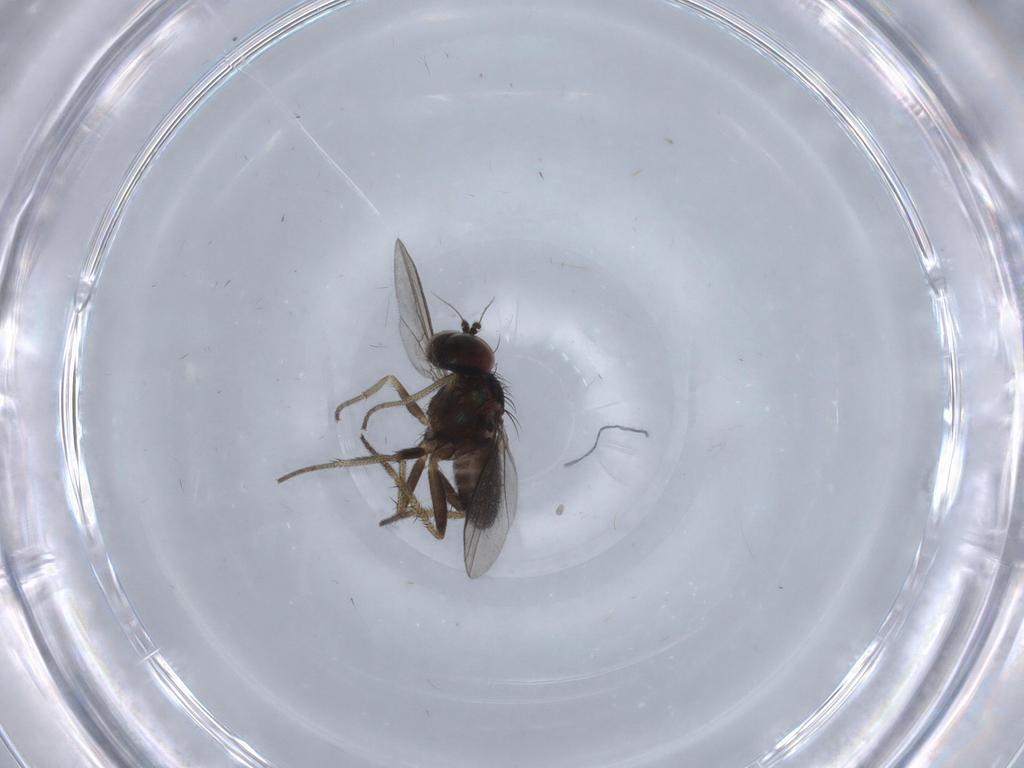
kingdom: Animalia
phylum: Arthropoda
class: Insecta
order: Diptera
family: Dolichopodidae
